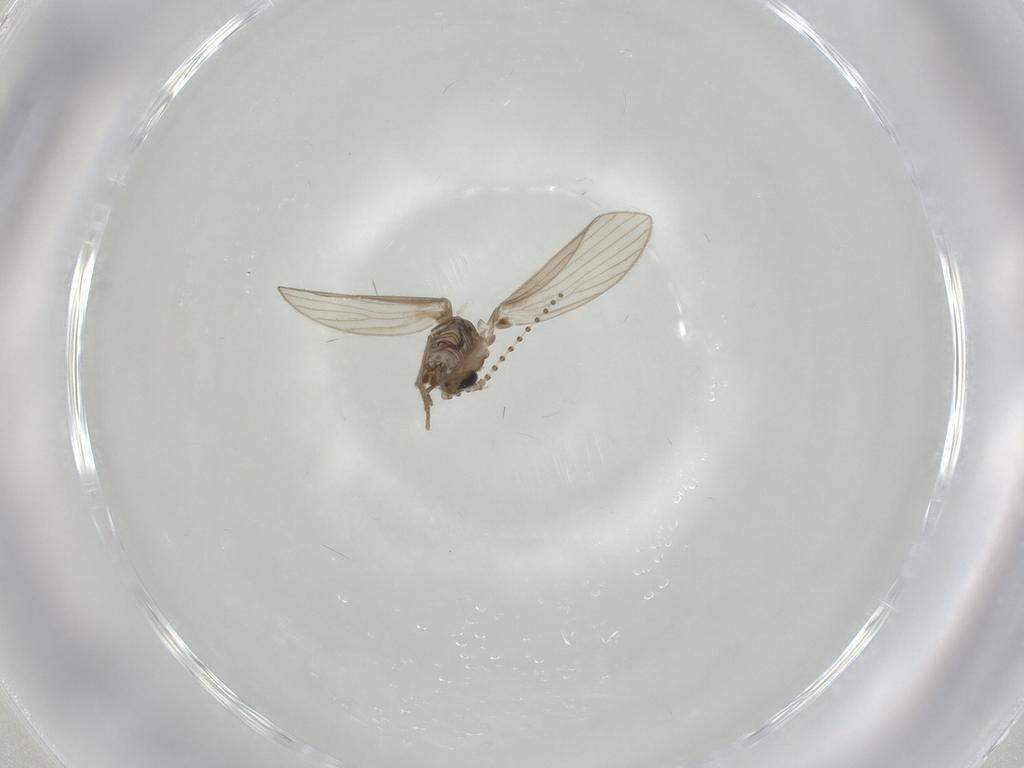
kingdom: Animalia
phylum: Arthropoda
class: Insecta
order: Diptera
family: Psychodidae
